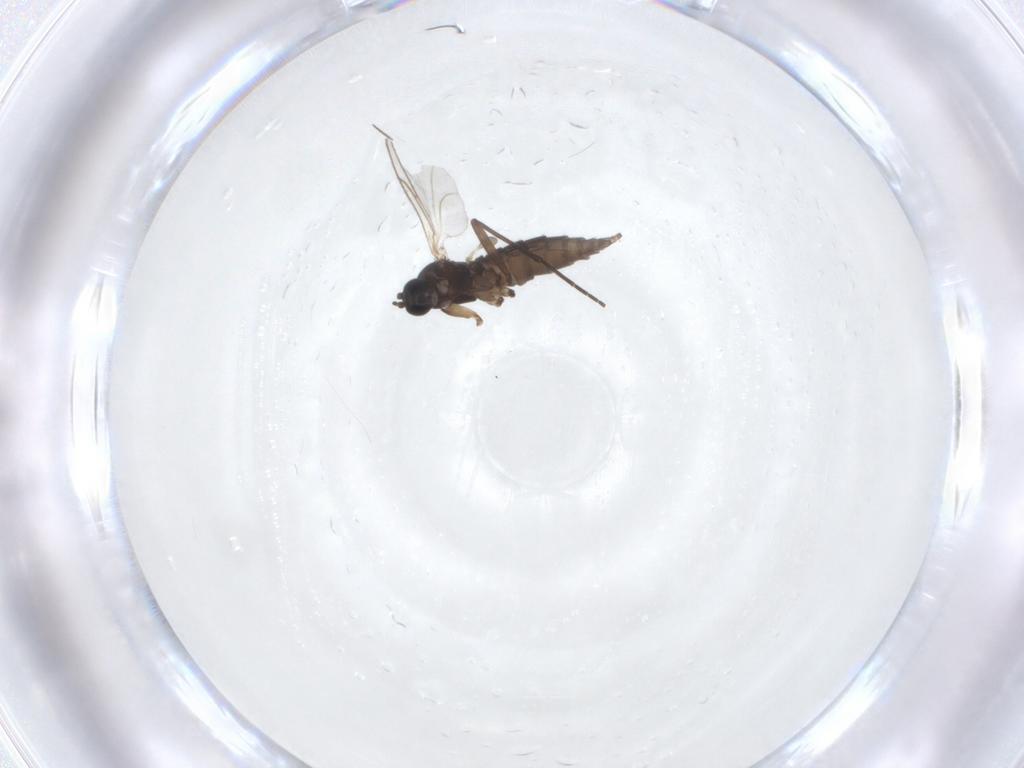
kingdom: Animalia
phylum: Arthropoda
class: Insecta
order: Diptera
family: Sciaridae
